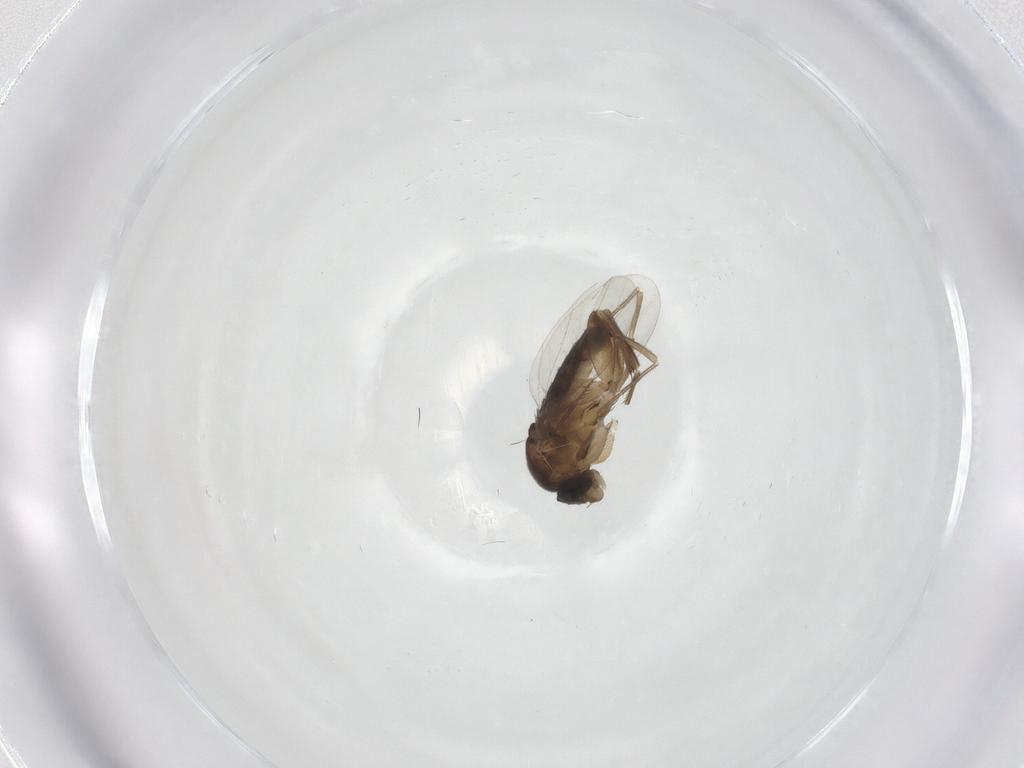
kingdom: Animalia
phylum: Arthropoda
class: Insecta
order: Diptera
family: Phoridae
